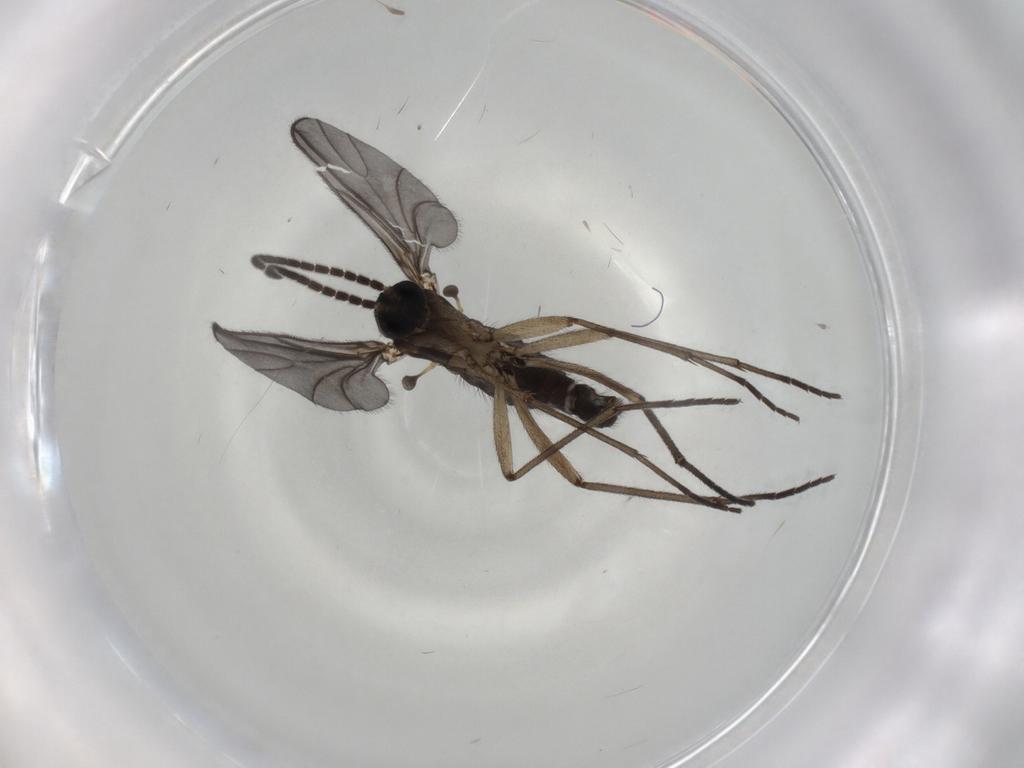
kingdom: Animalia
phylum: Arthropoda
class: Insecta
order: Diptera
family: Sciaridae
